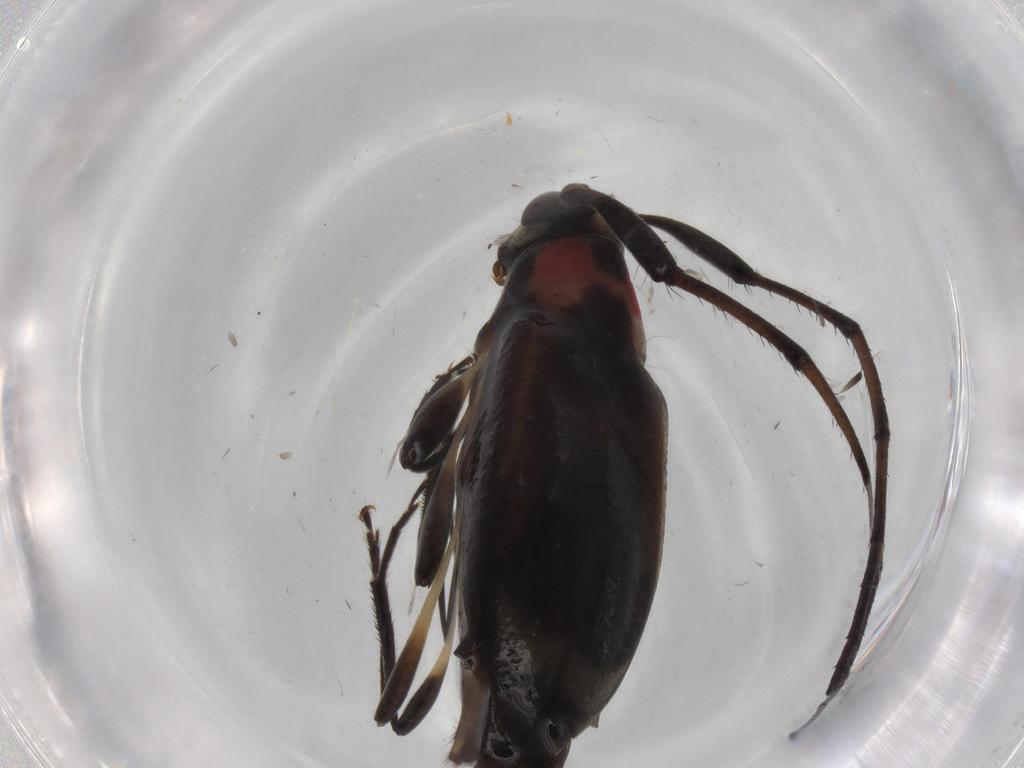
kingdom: Animalia
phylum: Arthropoda
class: Insecta
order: Coleoptera
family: Cerambycidae
